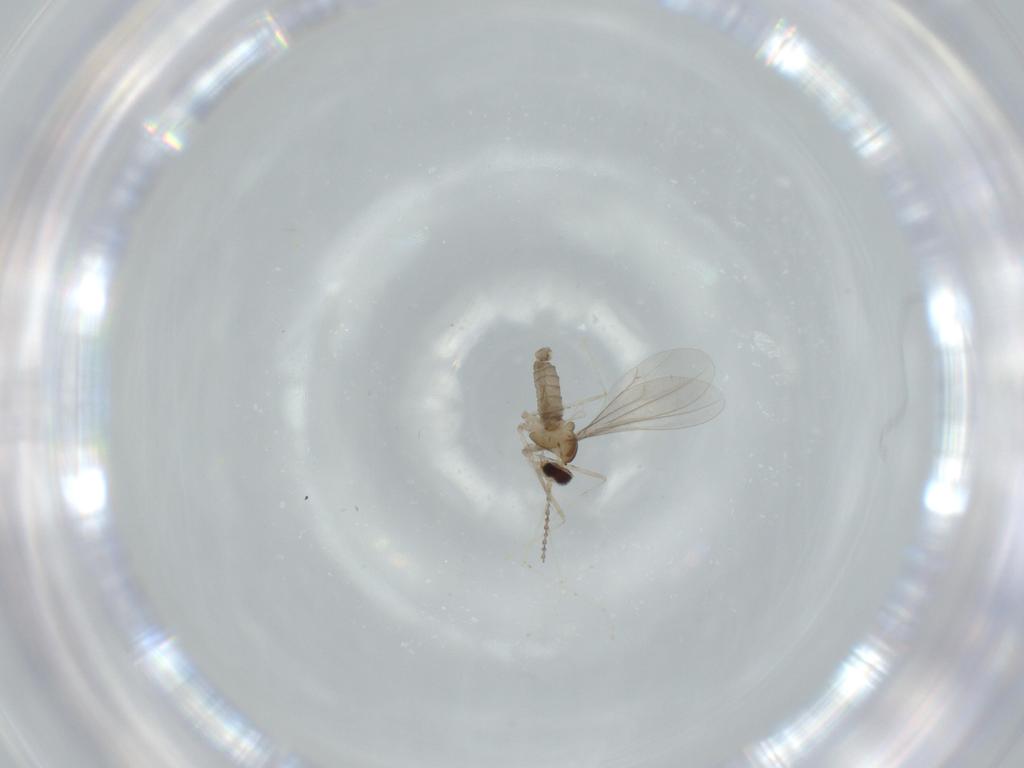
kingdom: Animalia
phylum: Arthropoda
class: Insecta
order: Diptera
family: Cecidomyiidae
